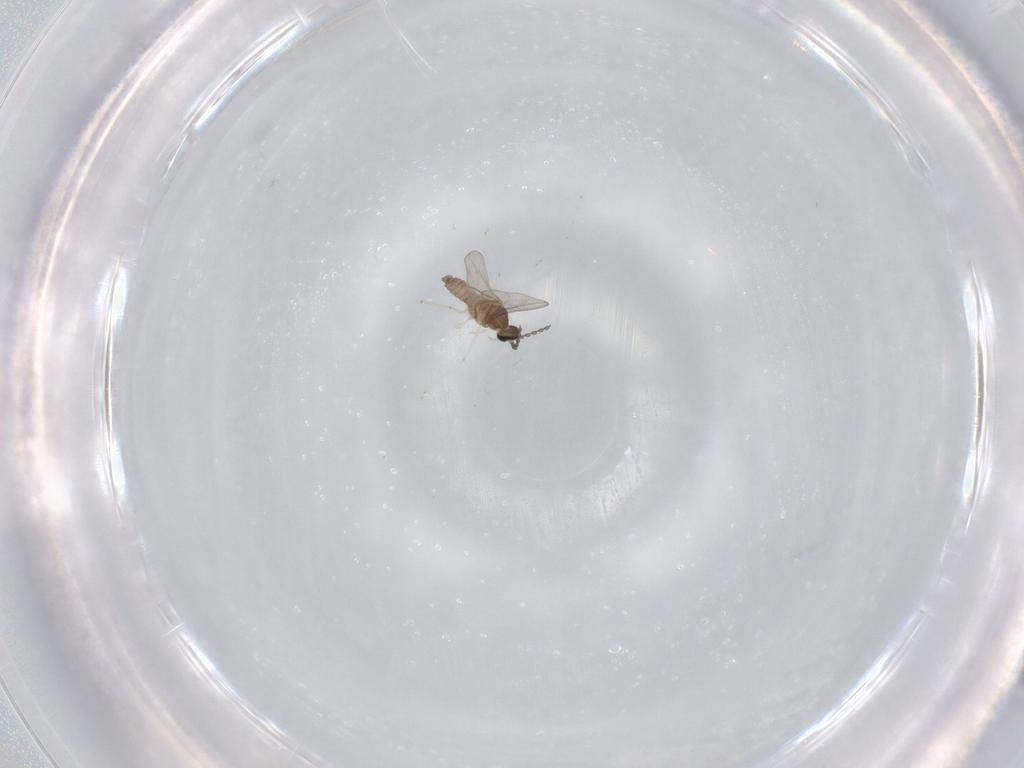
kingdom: Animalia
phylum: Arthropoda
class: Insecta
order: Diptera
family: Cecidomyiidae
